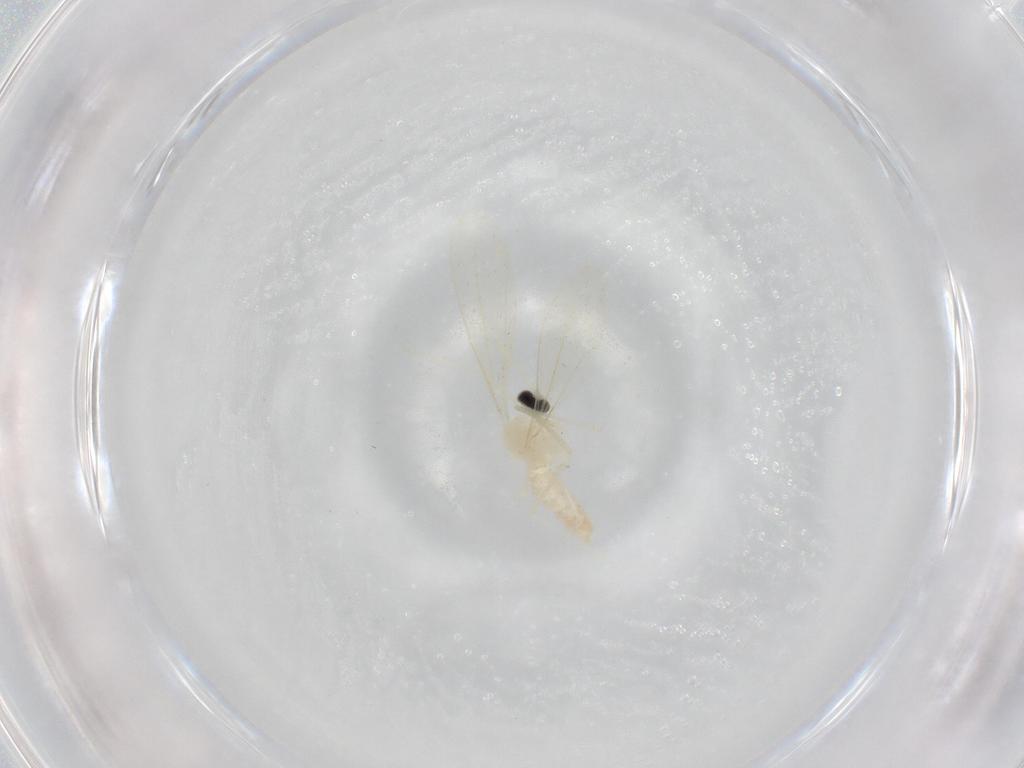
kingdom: Animalia
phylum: Arthropoda
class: Insecta
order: Diptera
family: Cecidomyiidae
